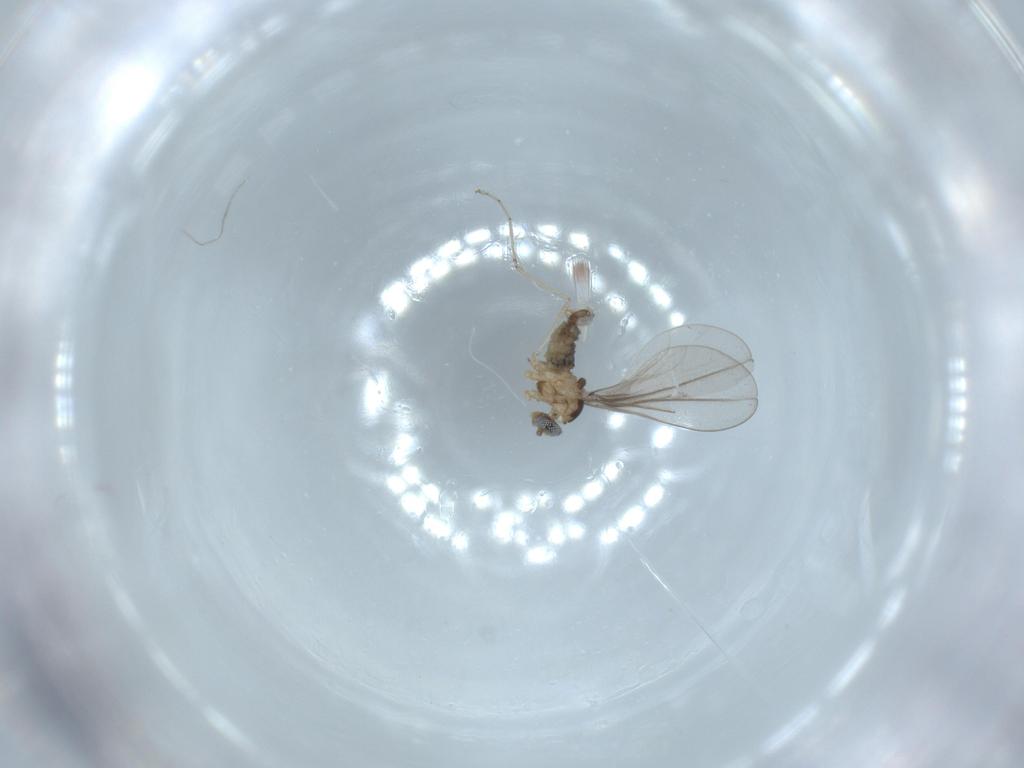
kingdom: Animalia
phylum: Arthropoda
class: Insecta
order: Diptera
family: Cecidomyiidae
